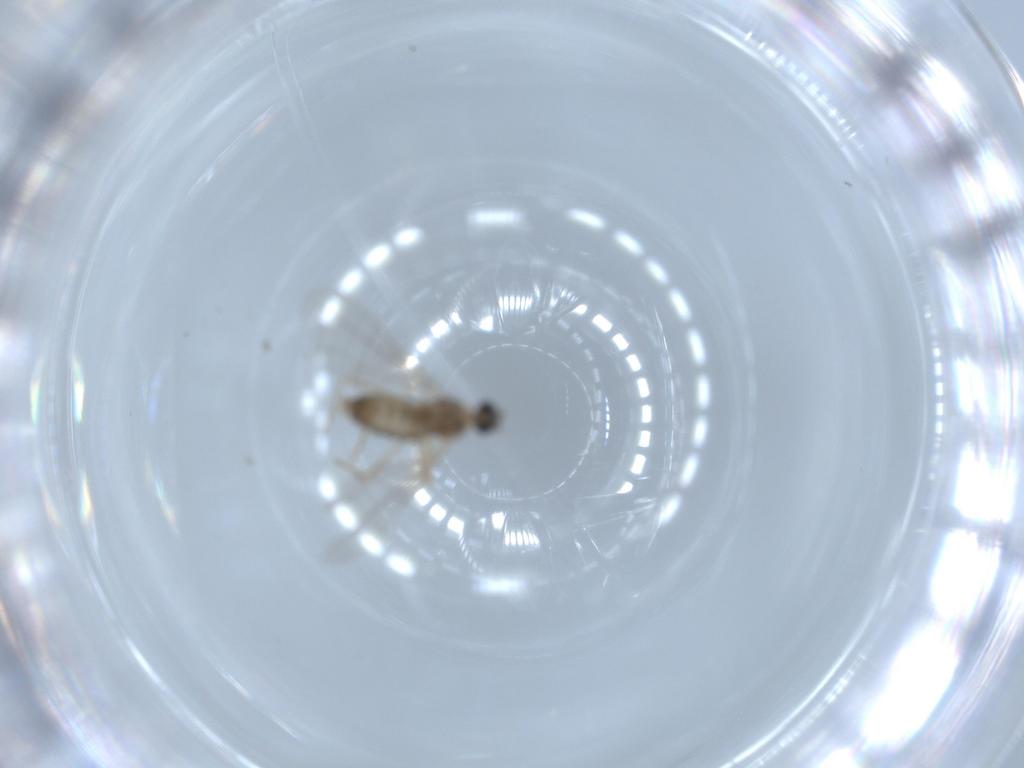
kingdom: Animalia
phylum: Arthropoda
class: Insecta
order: Diptera
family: Cecidomyiidae
